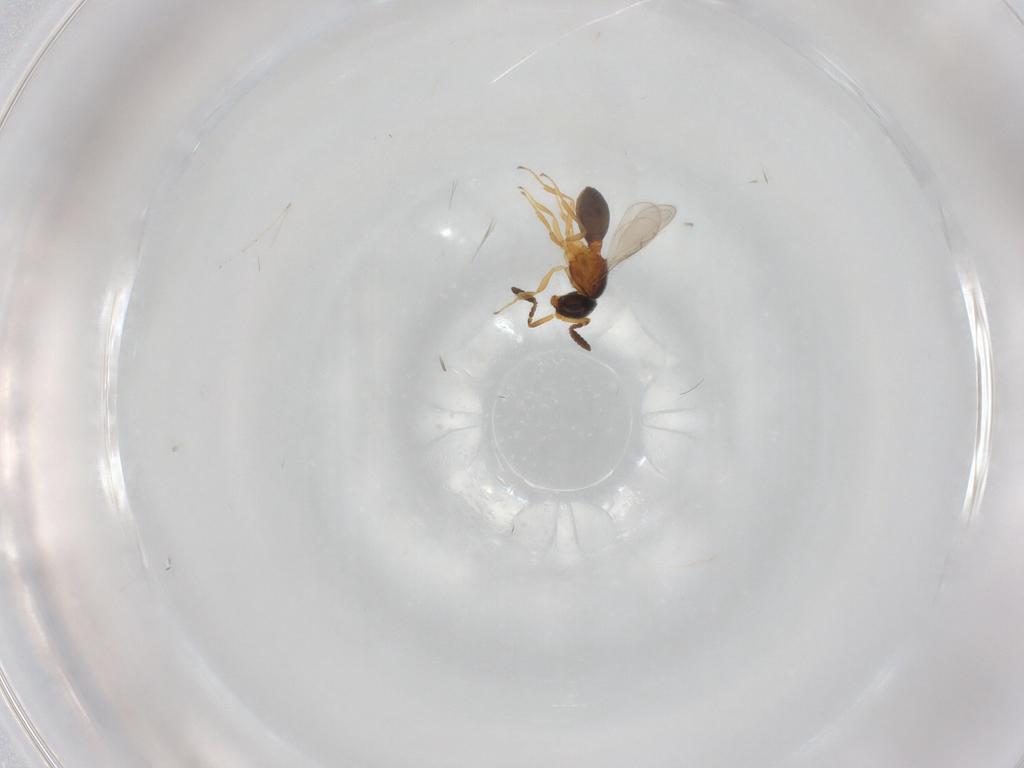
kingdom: Animalia
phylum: Arthropoda
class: Insecta
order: Hymenoptera
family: Scelionidae
